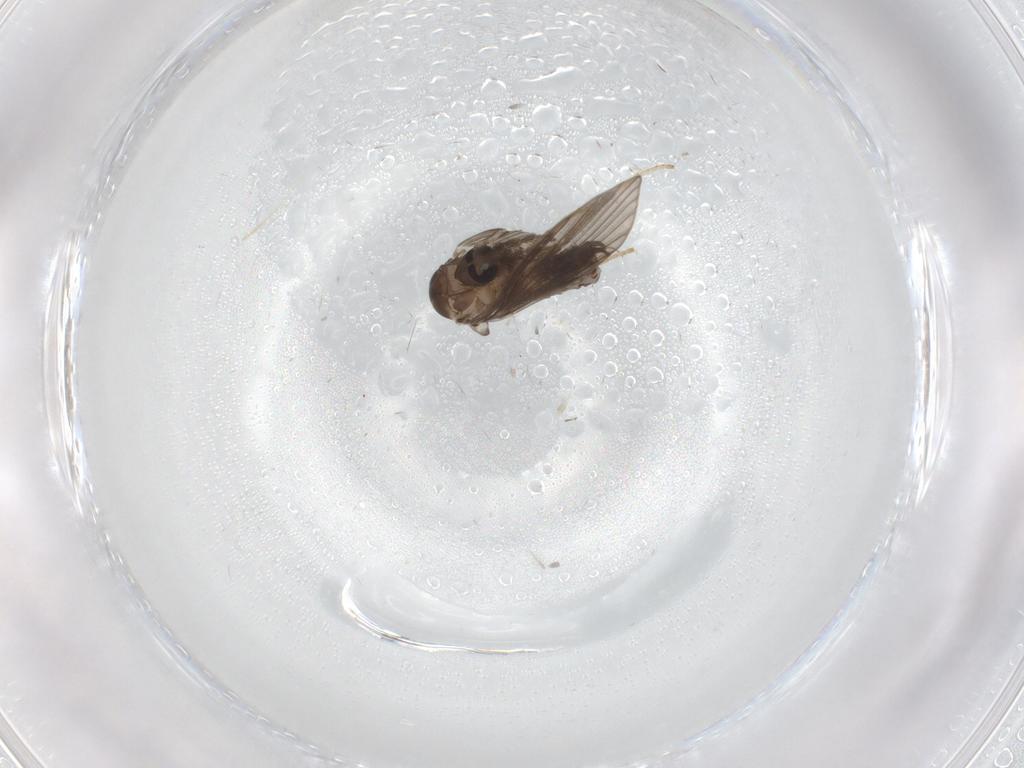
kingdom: Animalia
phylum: Arthropoda
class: Insecta
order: Diptera
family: Psychodidae
